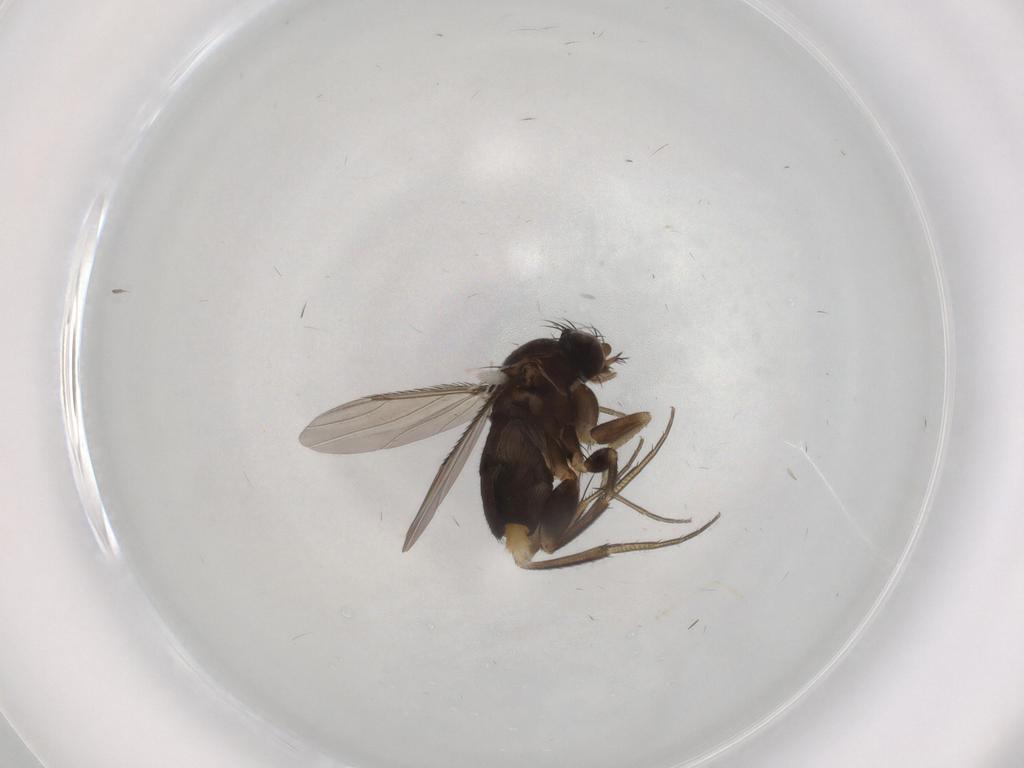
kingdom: Animalia
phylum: Arthropoda
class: Insecta
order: Diptera
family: Phoridae
